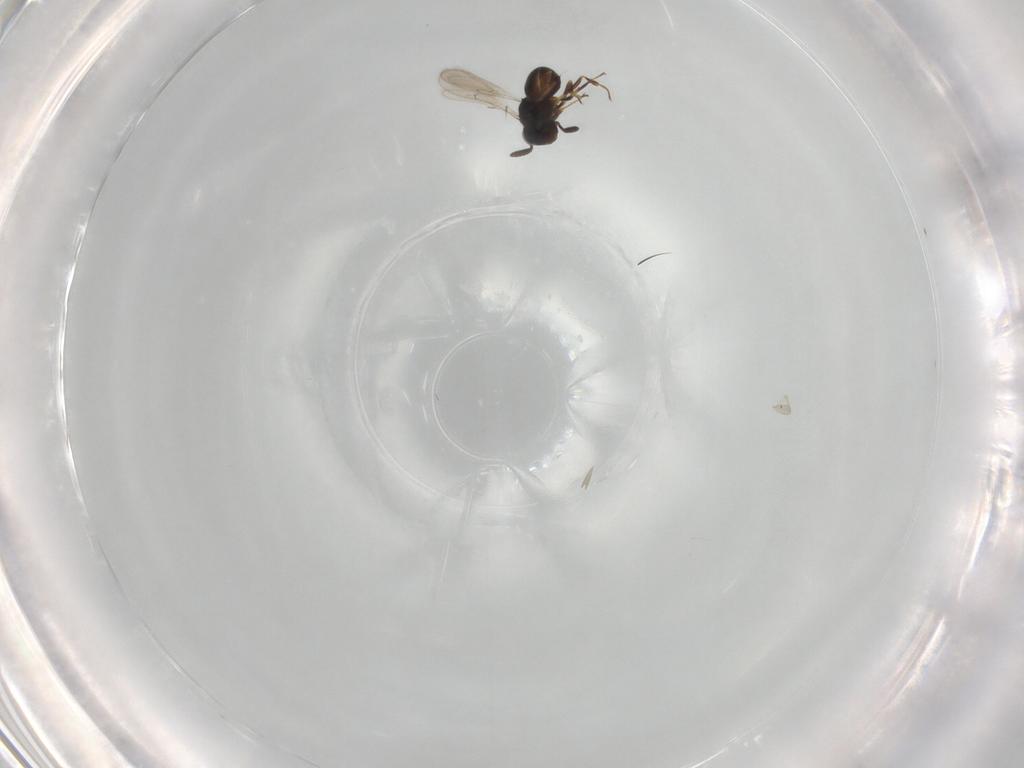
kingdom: Animalia
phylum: Arthropoda
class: Insecta
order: Hymenoptera
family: Scelionidae
